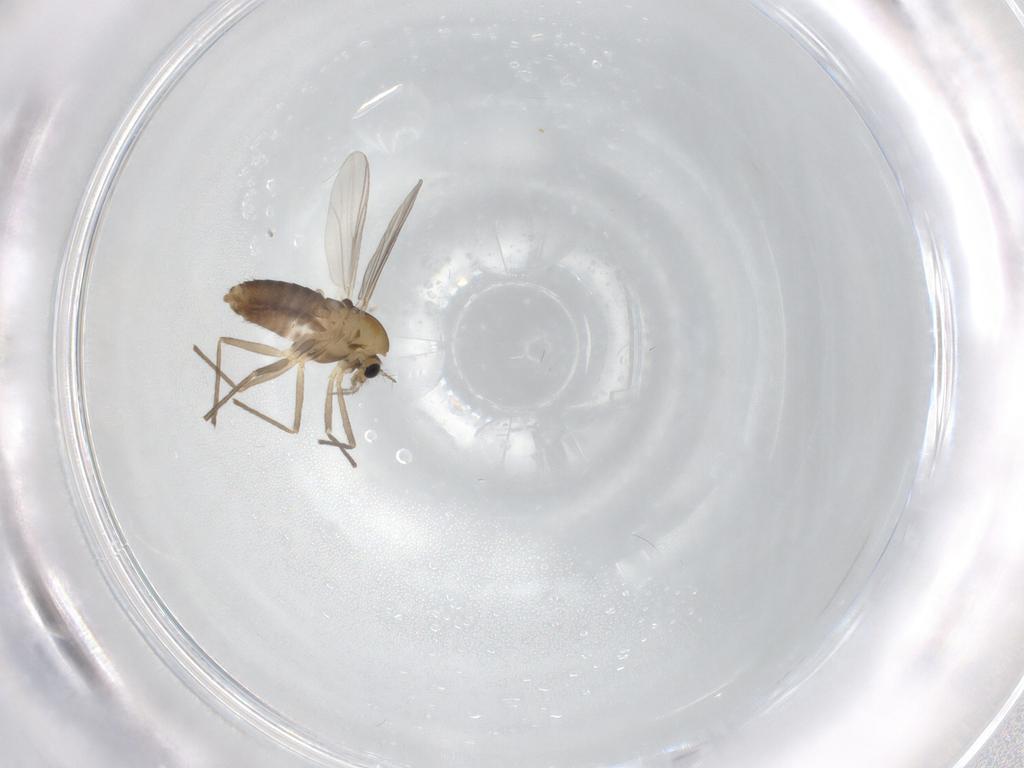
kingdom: Animalia
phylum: Arthropoda
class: Insecta
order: Diptera
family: Chironomidae
